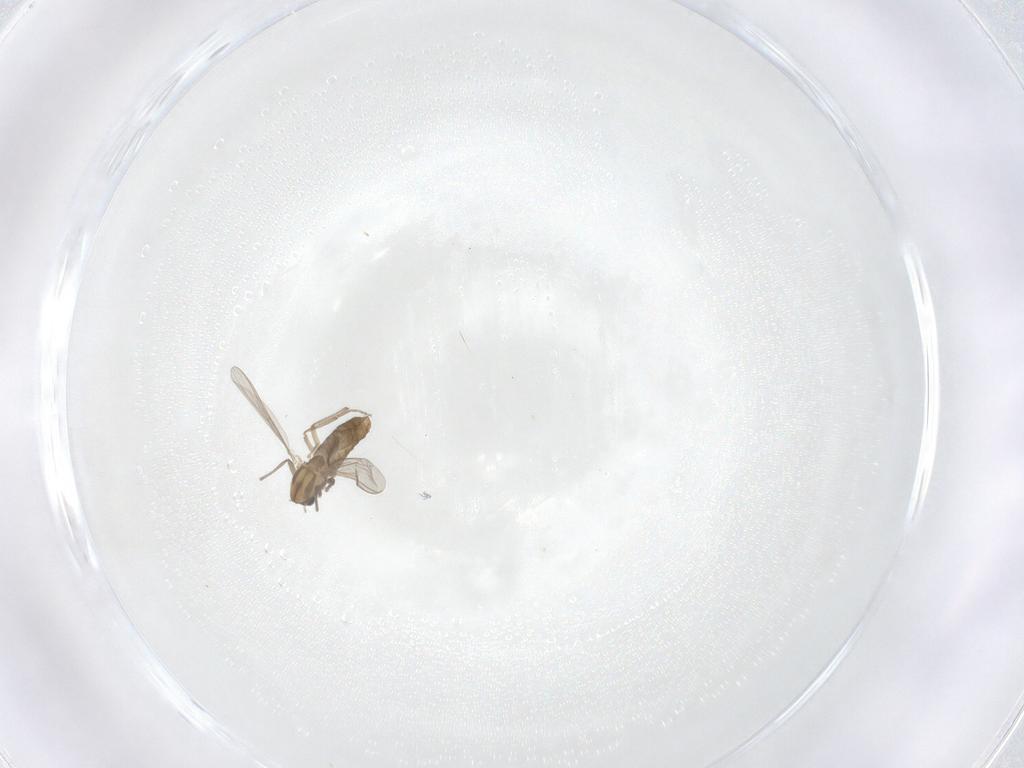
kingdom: Animalia
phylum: Arthropoda
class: Insecta
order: Diptera
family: Chironomidae
